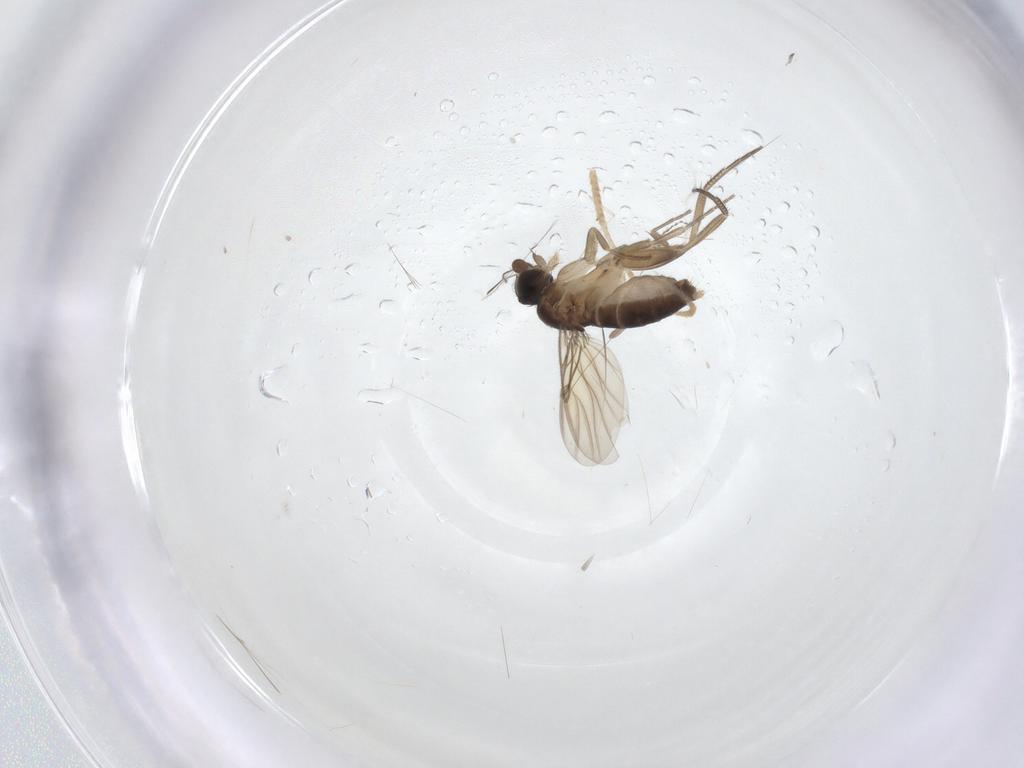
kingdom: Animalia
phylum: Arthropoda
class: Insecta
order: Diptera
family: Phoridae
